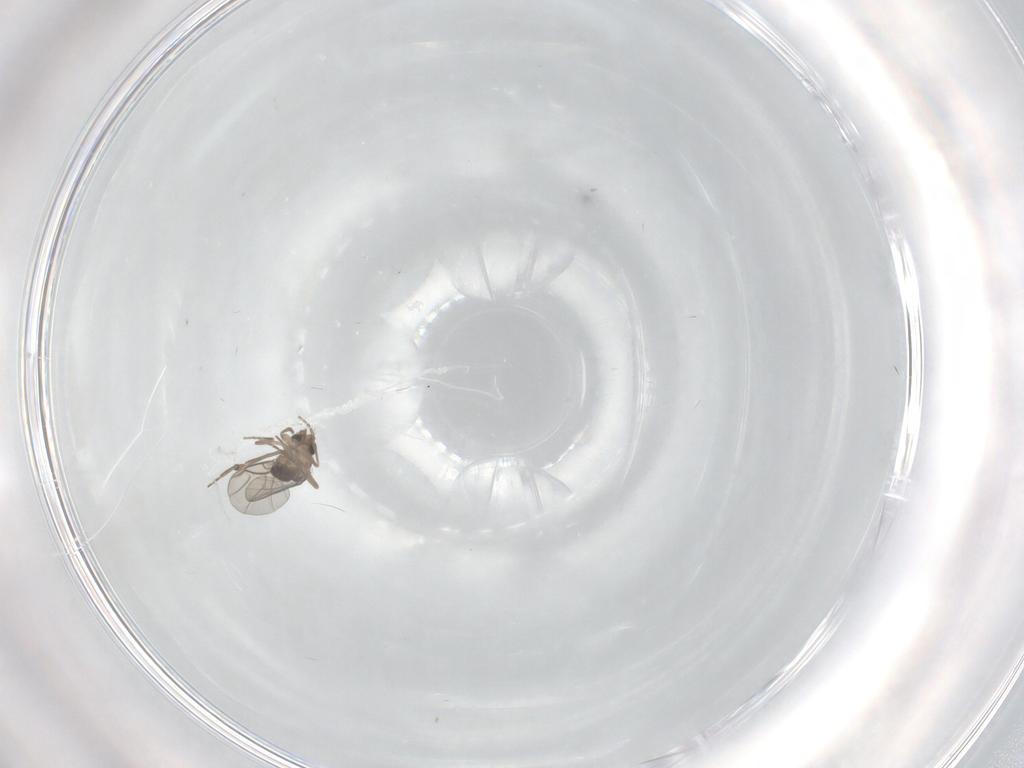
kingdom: Animalia
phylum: Arthropoda
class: Insecta
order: Diptera
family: Phoridae
